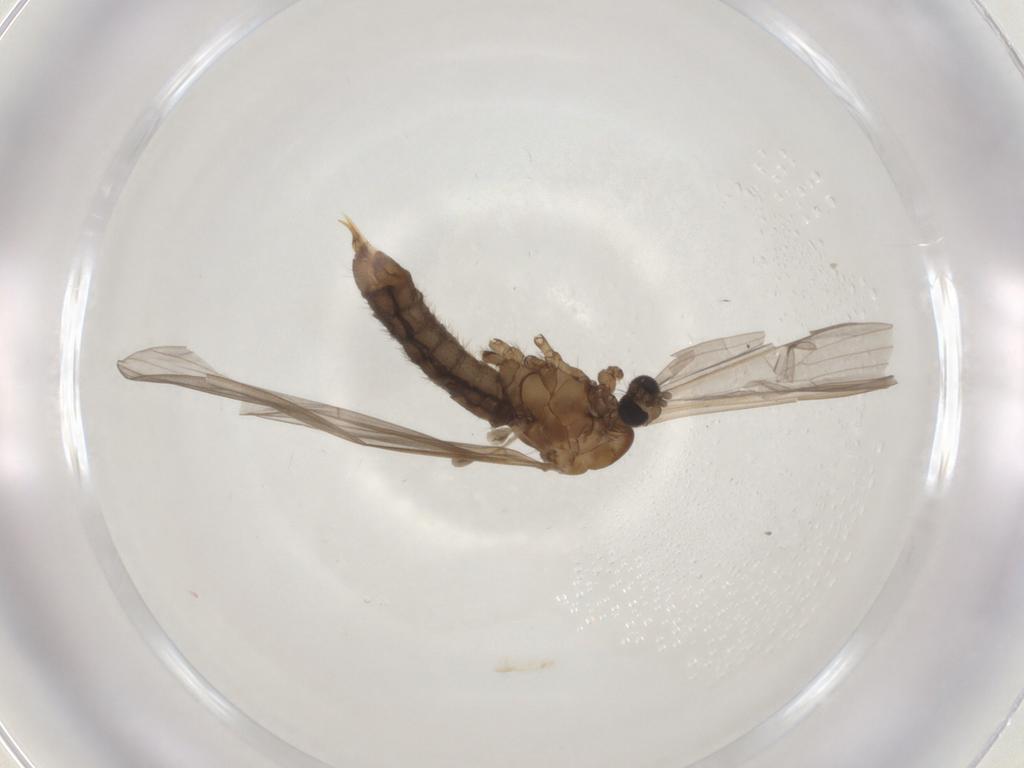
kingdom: Animalia
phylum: Arthropoda
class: Insecta
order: Diptera
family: Limoniidae
